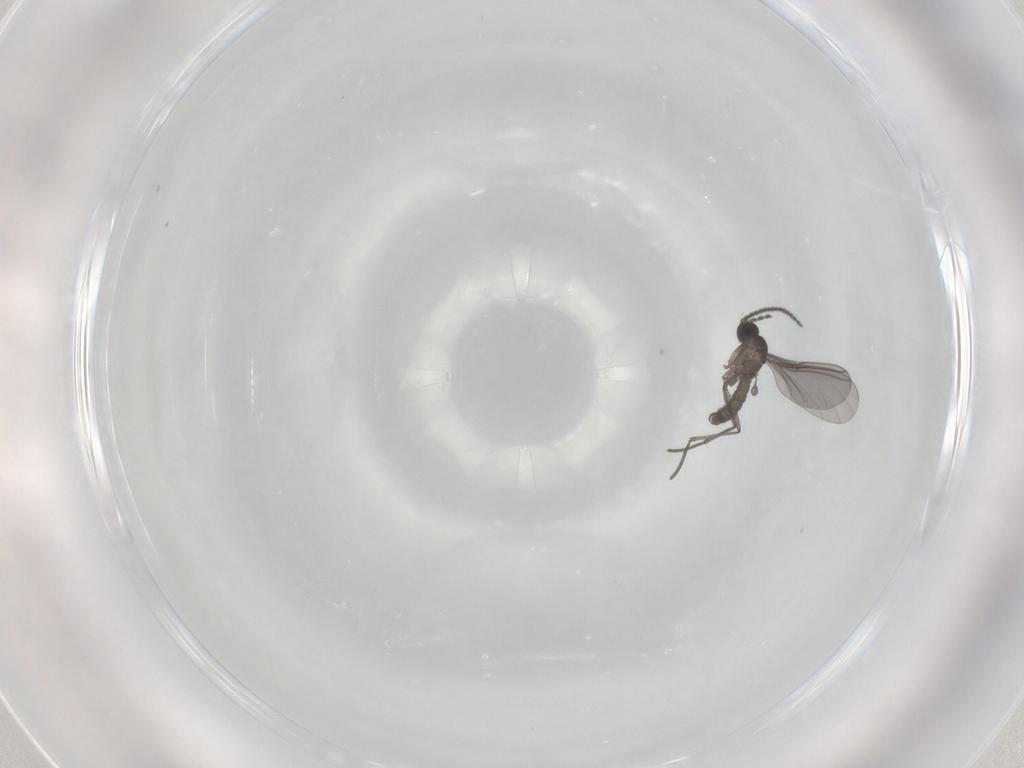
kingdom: Animalia
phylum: Arthropoda
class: Insecta
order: Diptera
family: Sciaridae
